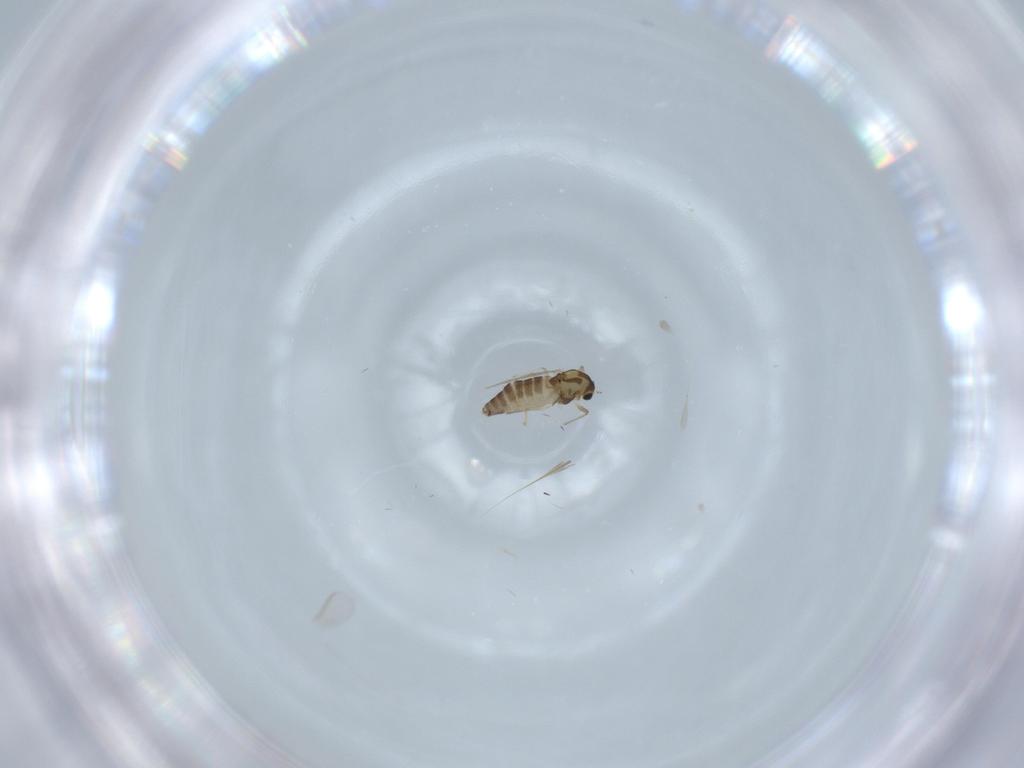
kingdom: Animalia
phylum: Arthropoda
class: Insecta
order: Diptera
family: Chironomidae
